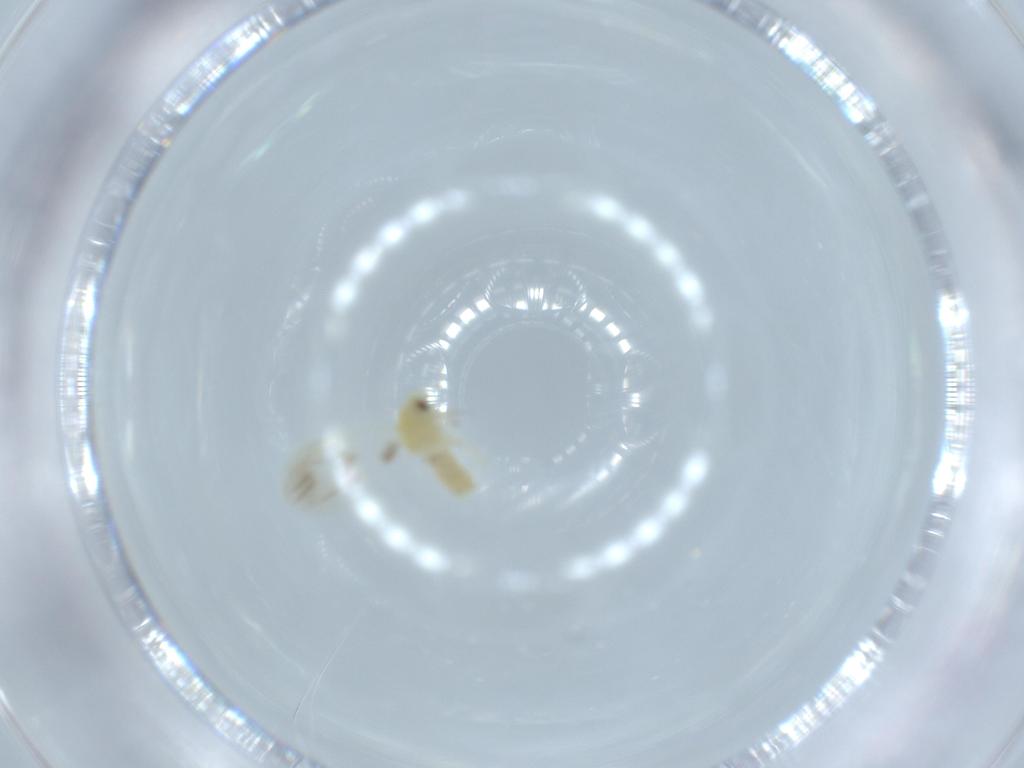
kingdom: Animalia
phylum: Arthropoda
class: Insecta
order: Hemiptera
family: Aleyrodidae
